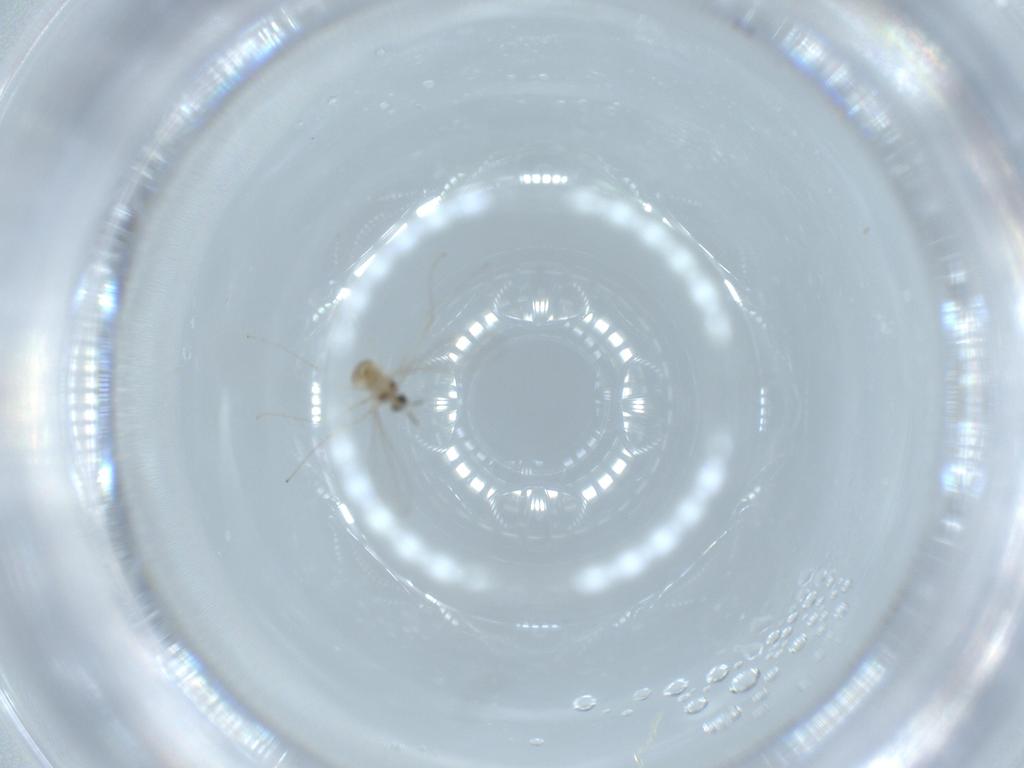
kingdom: Animalia
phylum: Arthropoda
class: Insecta
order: Diptera
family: Cecidomyiidae
